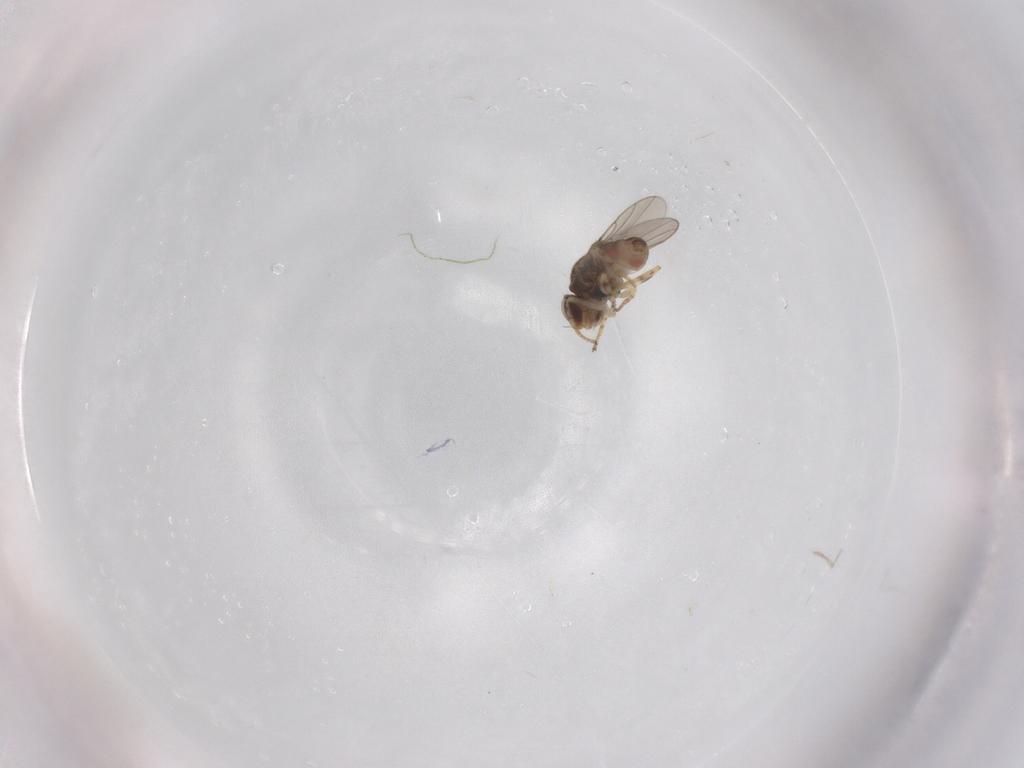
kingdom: Animalia
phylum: Arthropoda
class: Insecta
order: Diptera
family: Chloropidae
